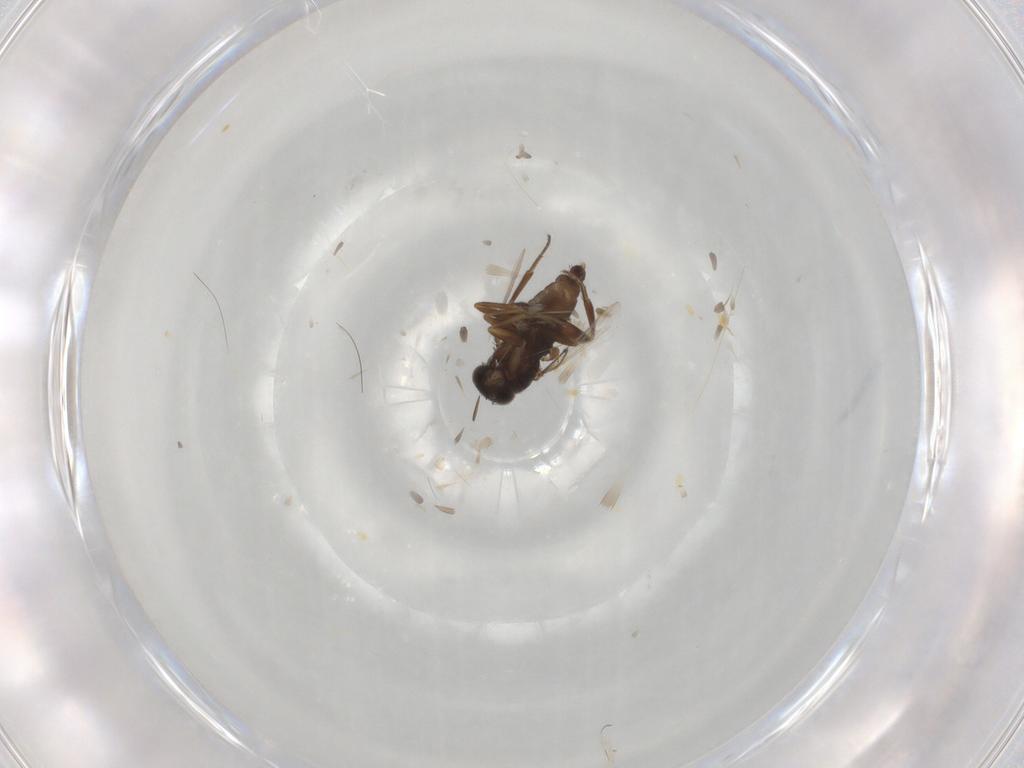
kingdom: Animalia
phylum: Arthropoda
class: Insecta
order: Diptera
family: Phoridae
